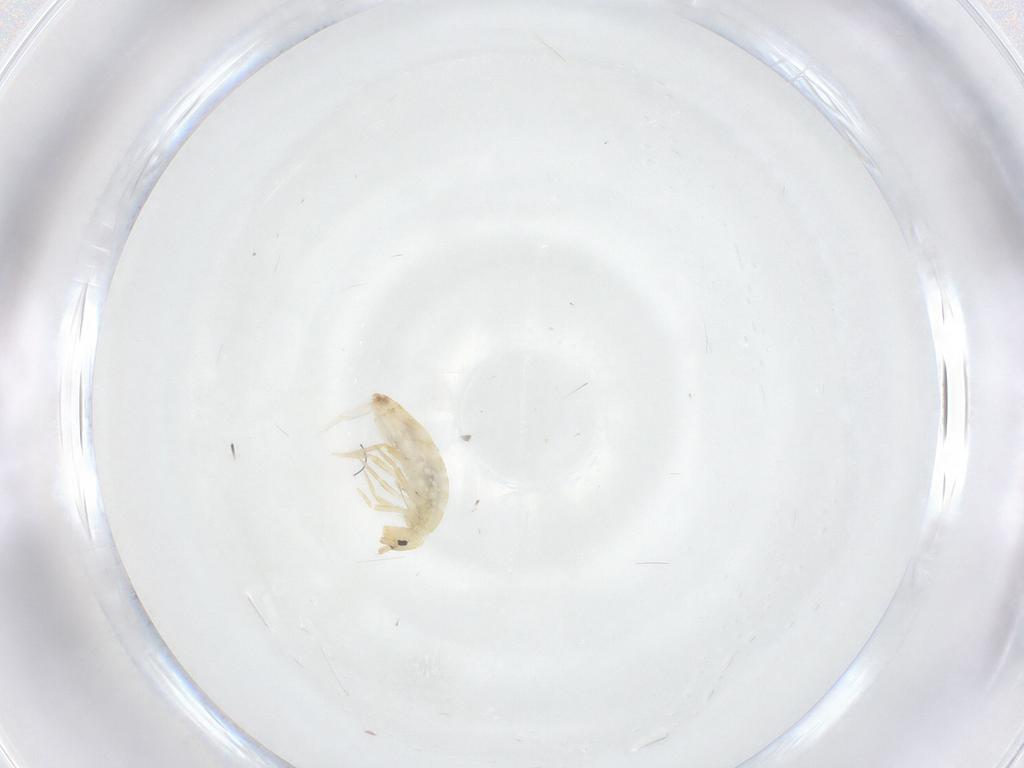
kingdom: Animalia
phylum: Arthropoda
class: Collembola
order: Entomobryomorpha
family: Entomobryidae
